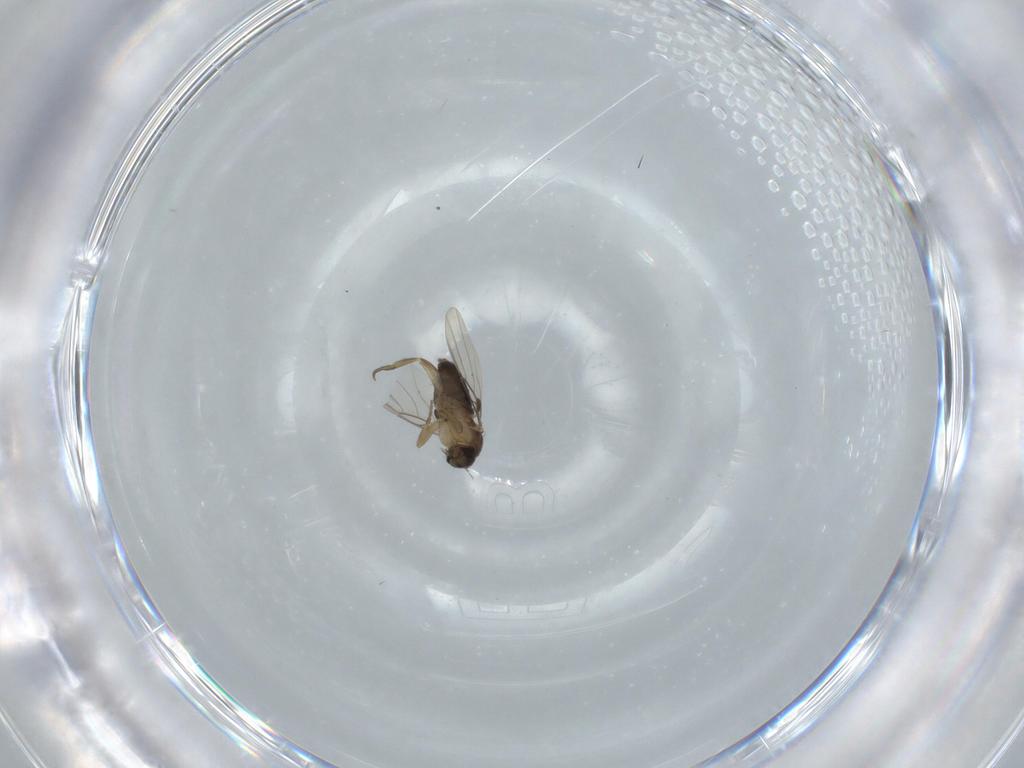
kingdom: Animalia
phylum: Arthropoda
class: Insecta
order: Diptera
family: Phoridae
